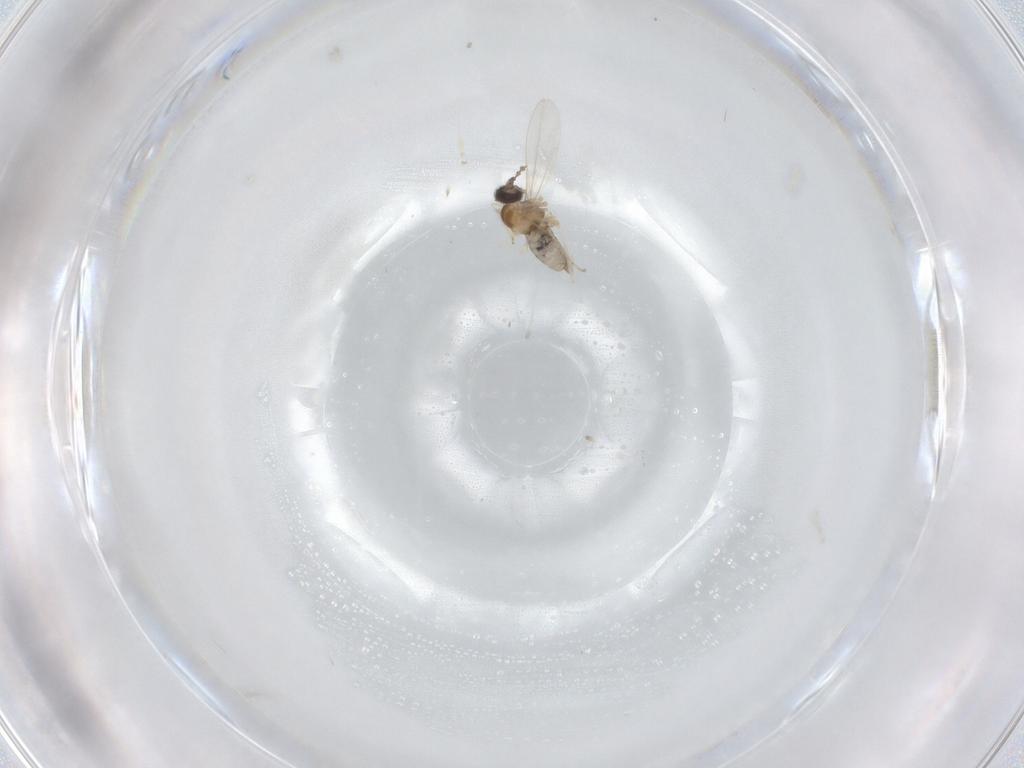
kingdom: Animalia
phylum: Arthropoda
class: Insecta
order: Diptera
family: Cecidomyiidae
